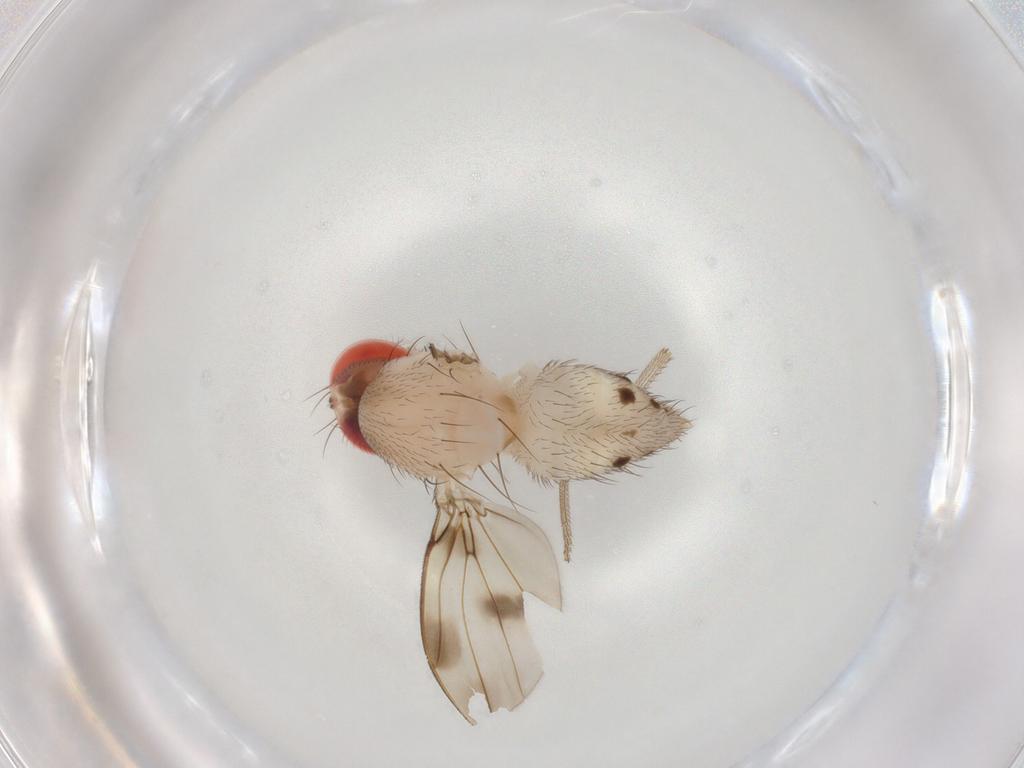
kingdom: Animalia
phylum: Arthropoda
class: Insecta
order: Diptera
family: Drosophilidae
